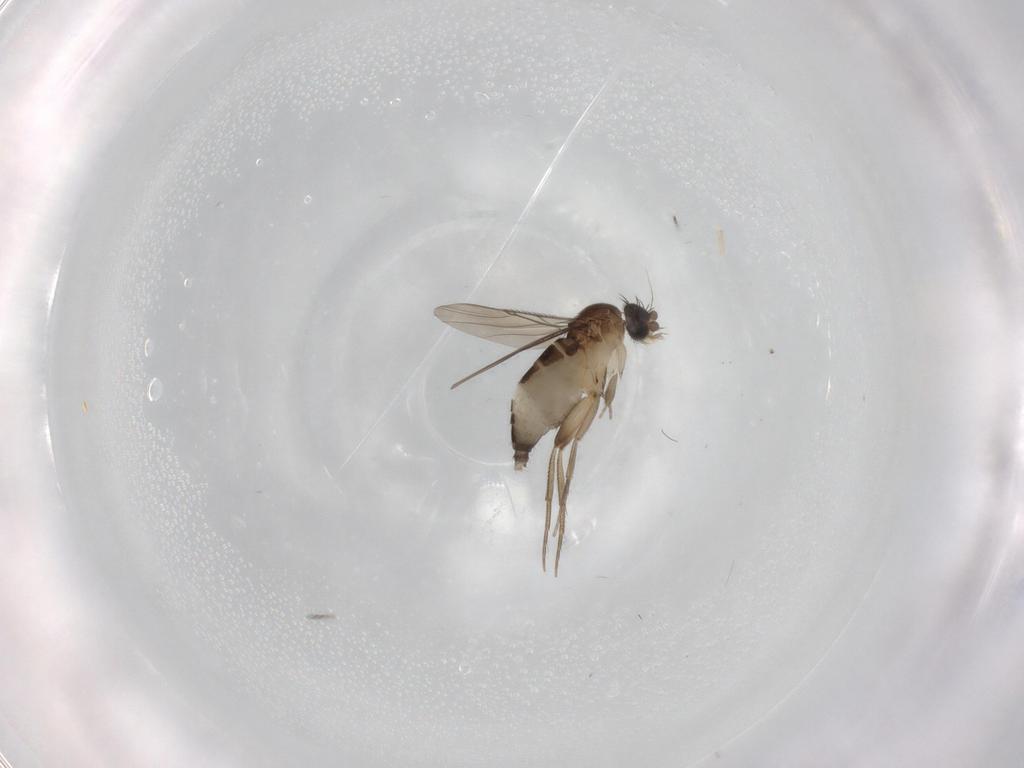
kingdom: Animalia
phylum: Arthropoda
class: Insecta
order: Diptera
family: Phoridae
